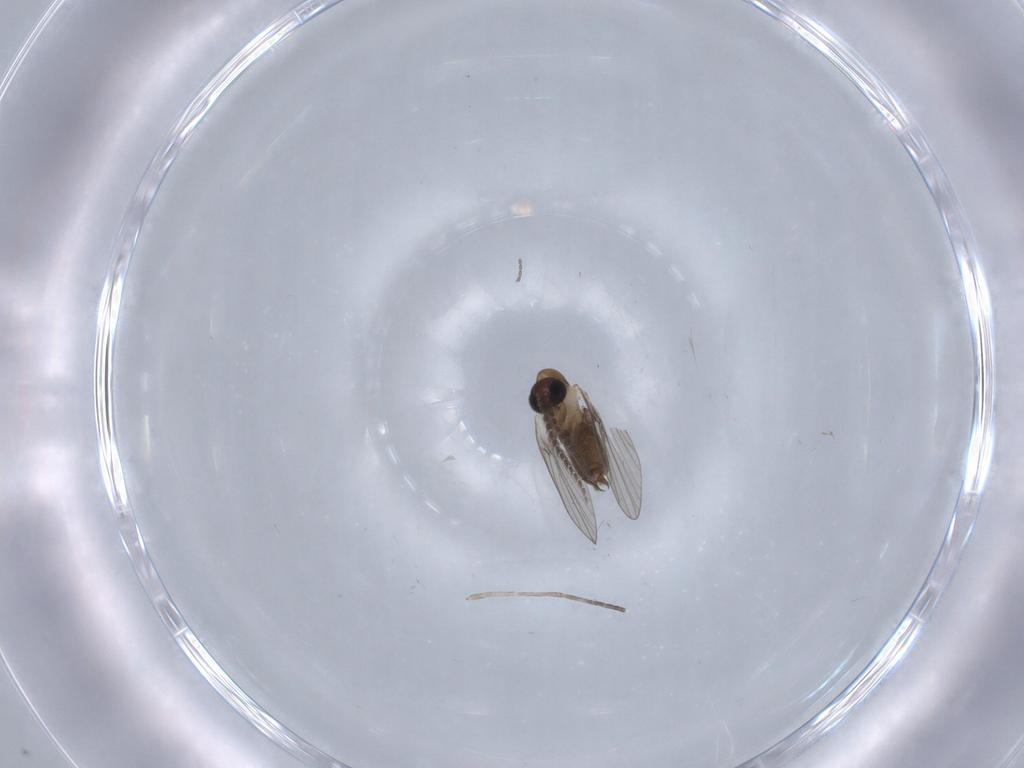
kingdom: Animalia
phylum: Arthropoda
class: Insecta
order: Diptera
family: Psychodidae
